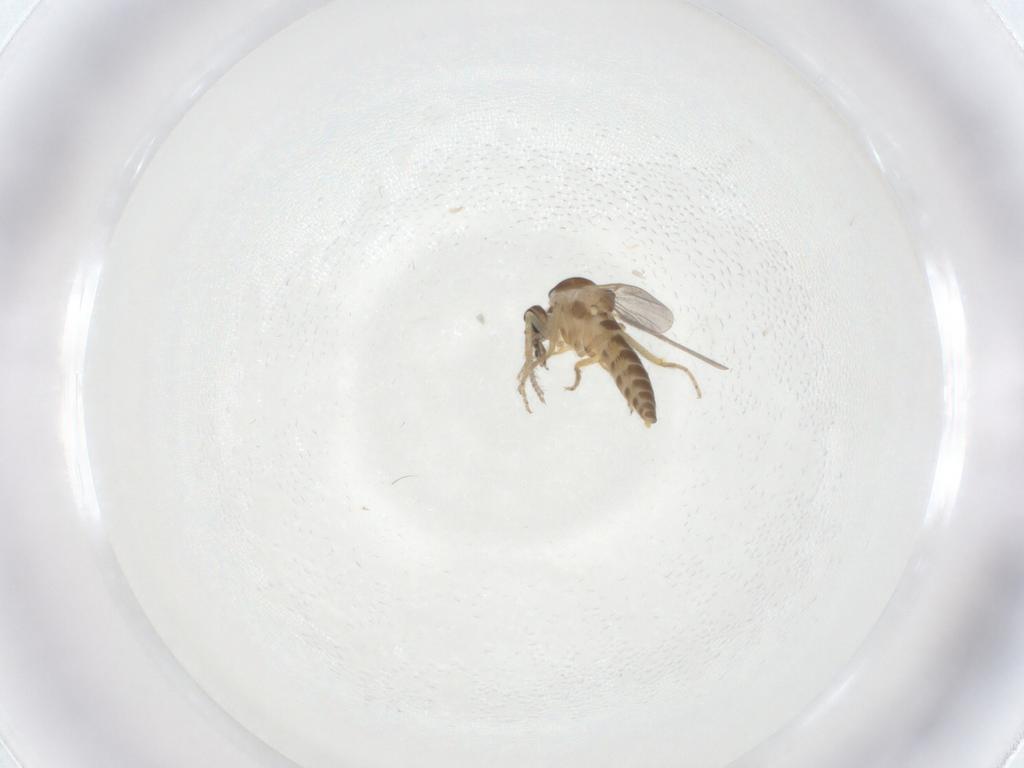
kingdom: Animalia
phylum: Arthropoda
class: Insecta
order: Diptera
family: Ceratopogonidae
